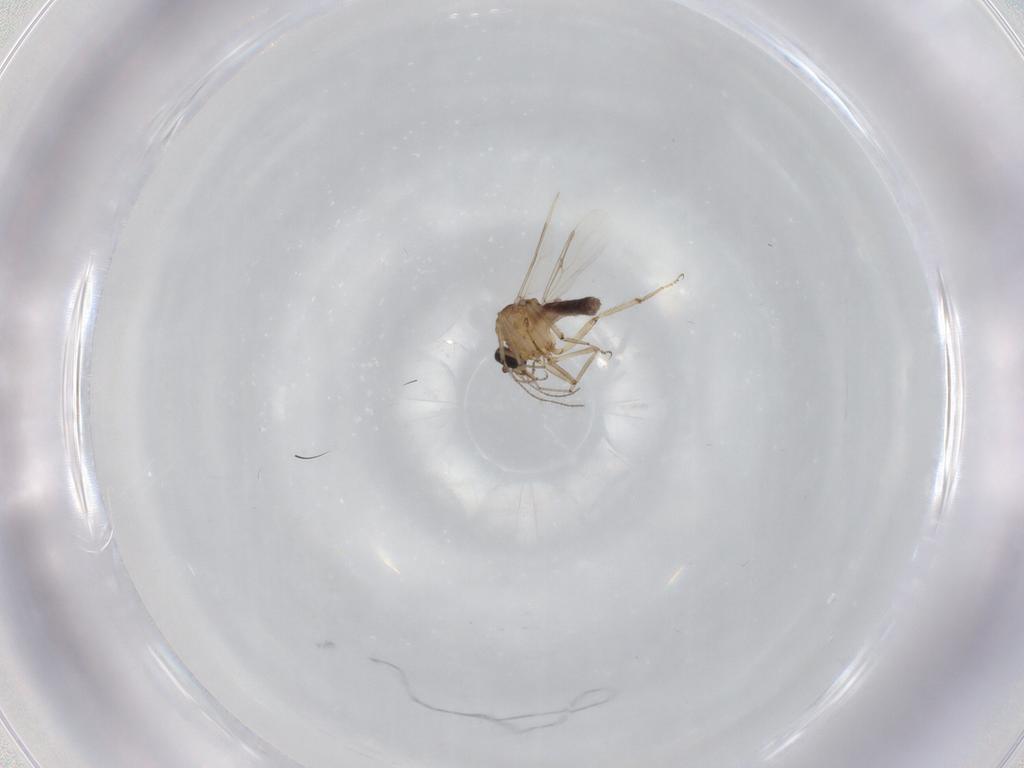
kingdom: Animalia
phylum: Arthropoda
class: Insecta
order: Diptera
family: Ceratopogonidae
